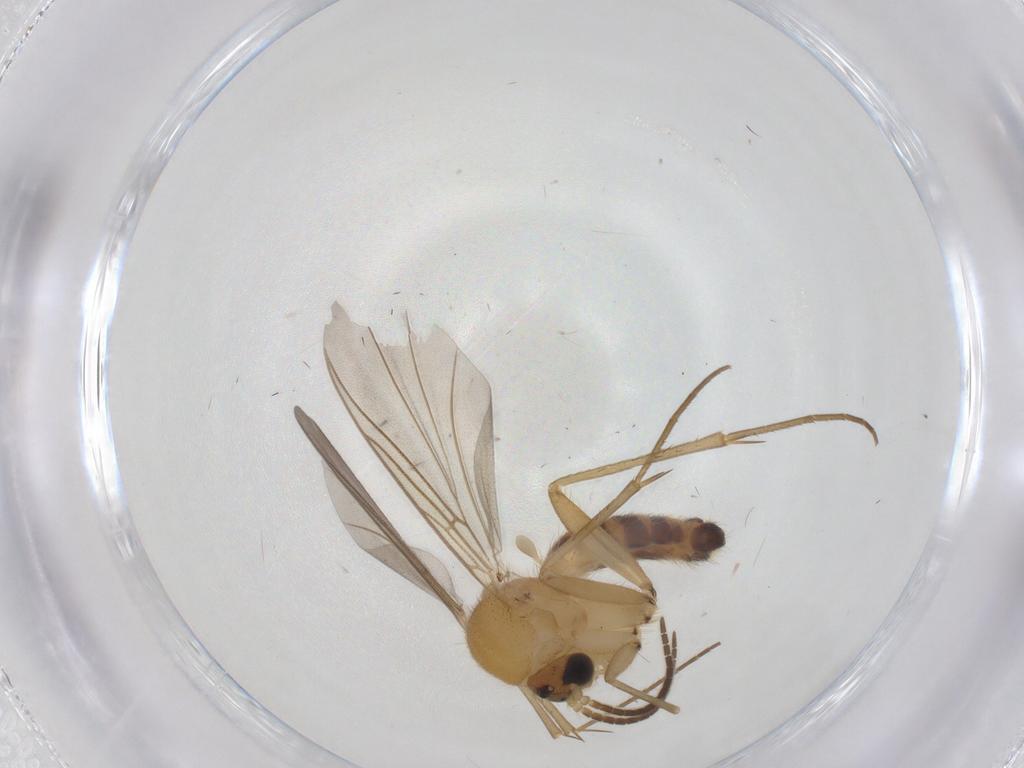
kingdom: Animalia
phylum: Arthropoda
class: Insecta
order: Diptera
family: Mycetophilidae
